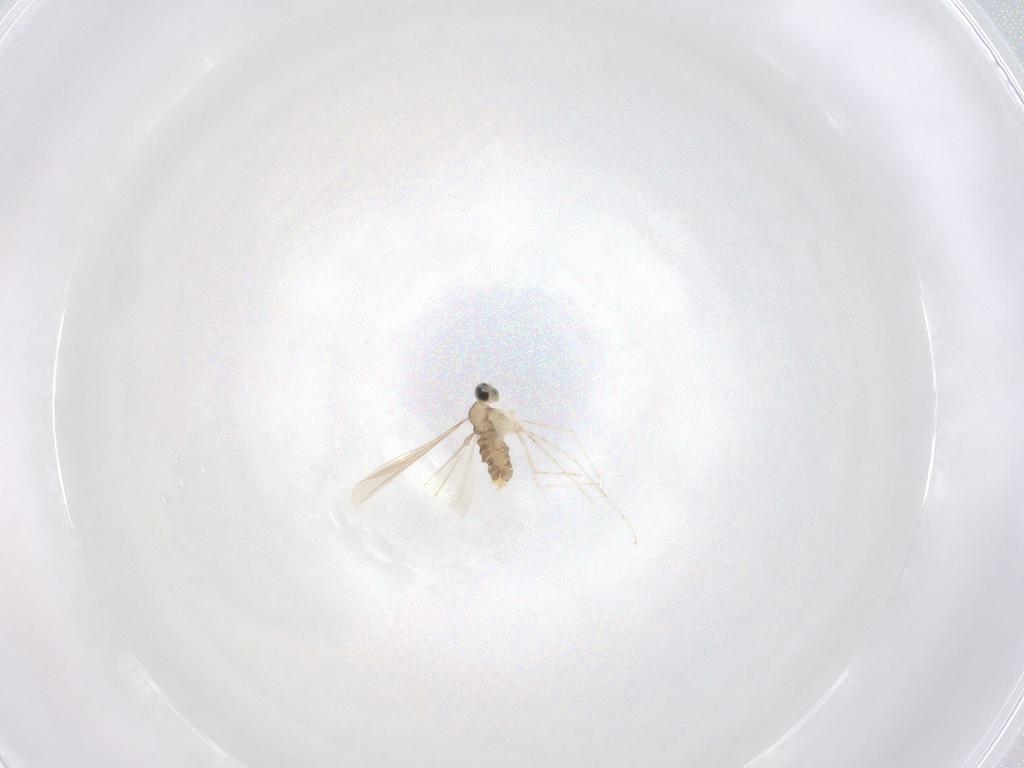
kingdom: Animalia
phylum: Arthropoda
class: Insecta
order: Diptera
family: Cecidomyiidae
